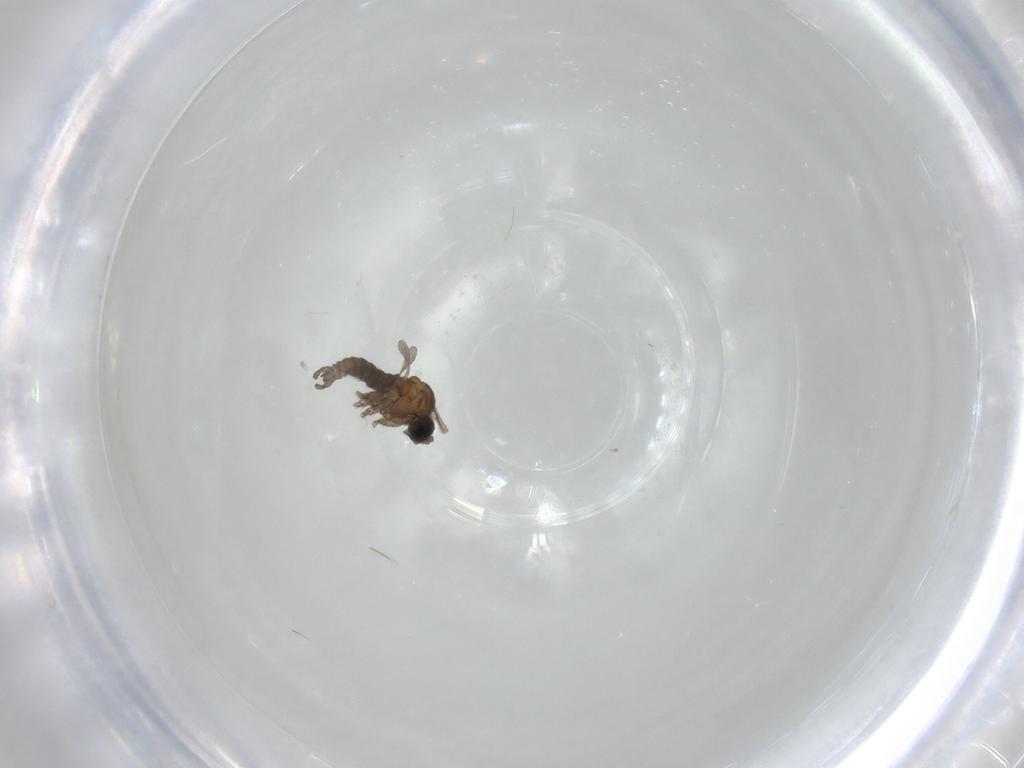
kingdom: Animalia
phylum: Arthropoda
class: Insecta
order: Diptera
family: Sciaridae
